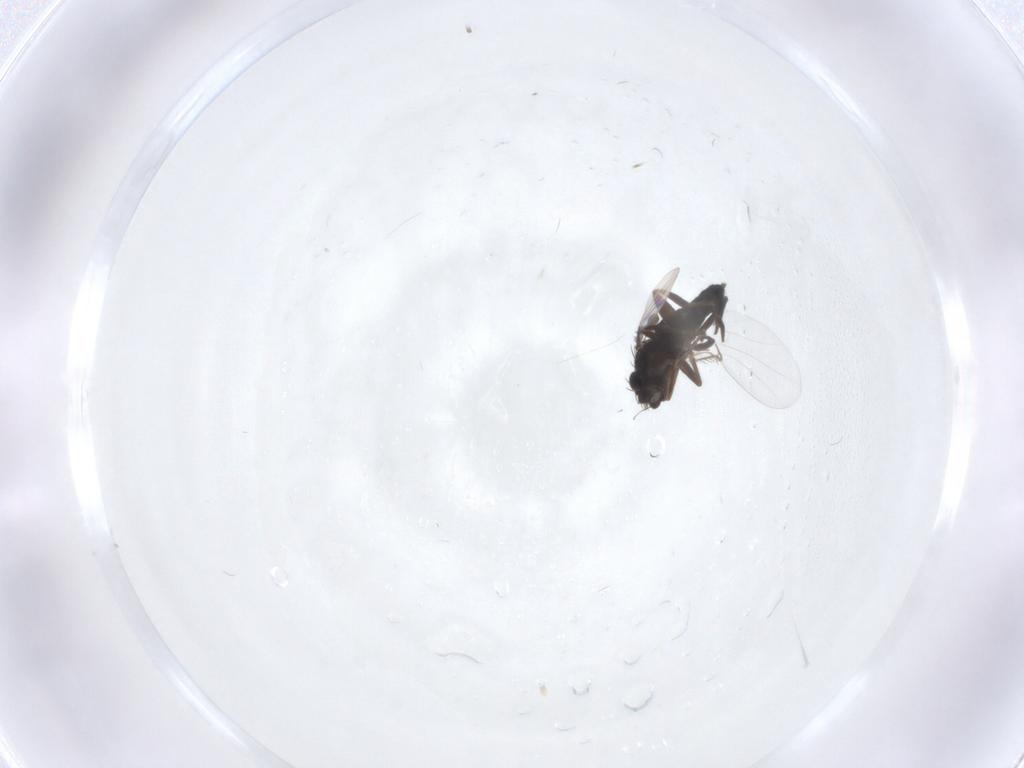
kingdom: Animalia
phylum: Arthropoda
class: Insecta
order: Diptera
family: Phoridae
